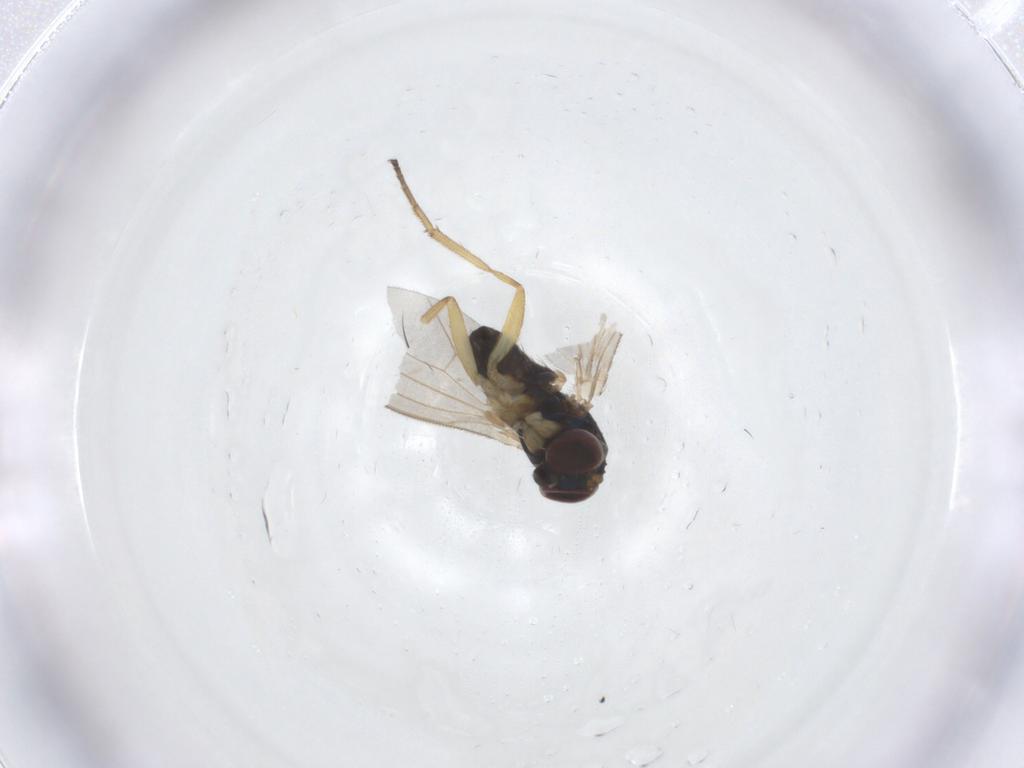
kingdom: Animalia
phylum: Arthropoda
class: Insecta
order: Diptera
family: Dolichopodidae
